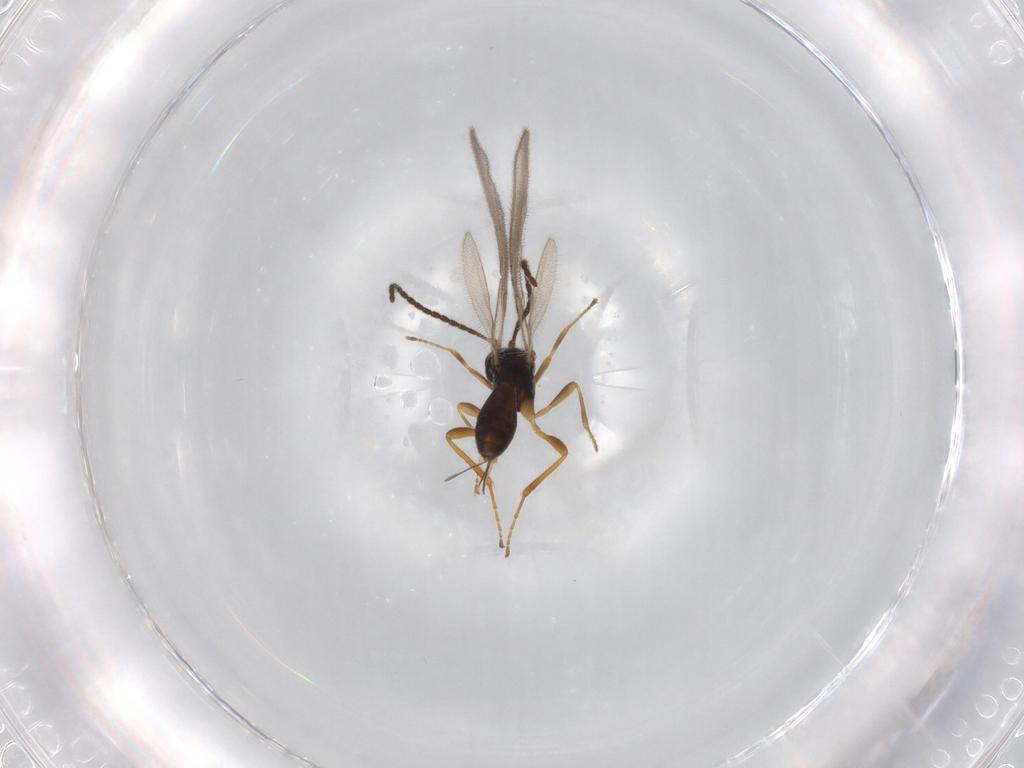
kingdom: Animalia
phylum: Arthropoda
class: Insecta
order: Hymenoptera
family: Braconidae
